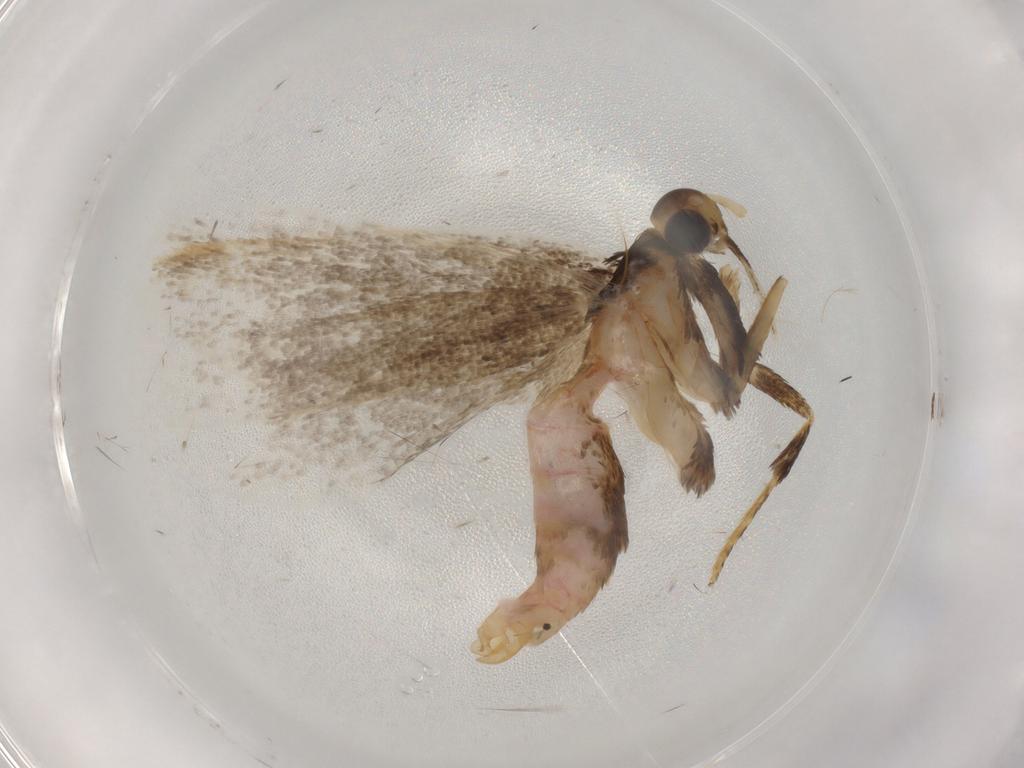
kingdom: Animalia
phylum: Arthropoda
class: Insecta
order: Lepidoptera
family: Lecithoceridae
